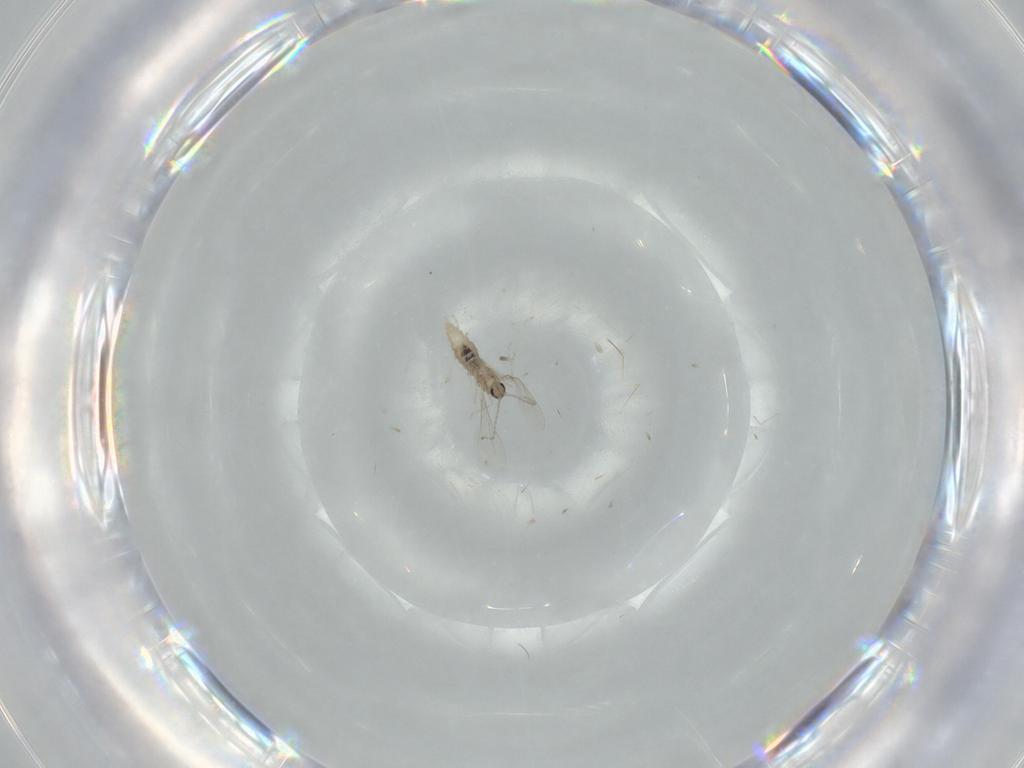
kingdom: Animalia
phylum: Arthropoda
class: Insecta
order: Diptera
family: Cecidomyiidae
